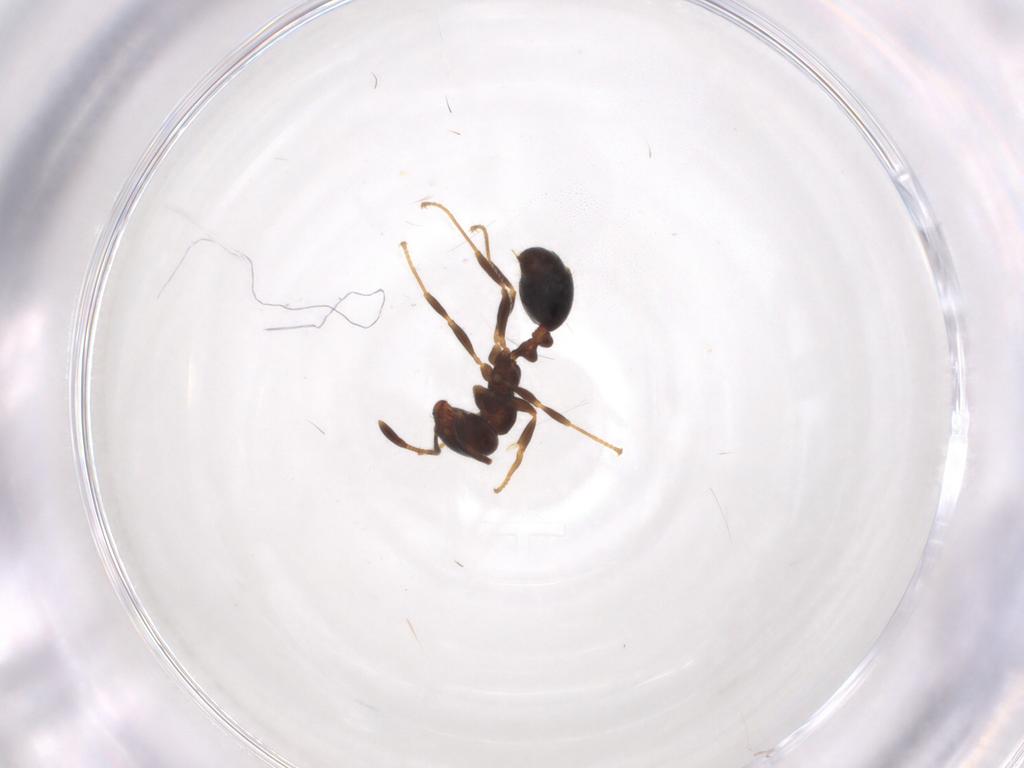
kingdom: Animalia
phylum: Arthropoda
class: Insecta
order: Hymenoptera
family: Formicidae
